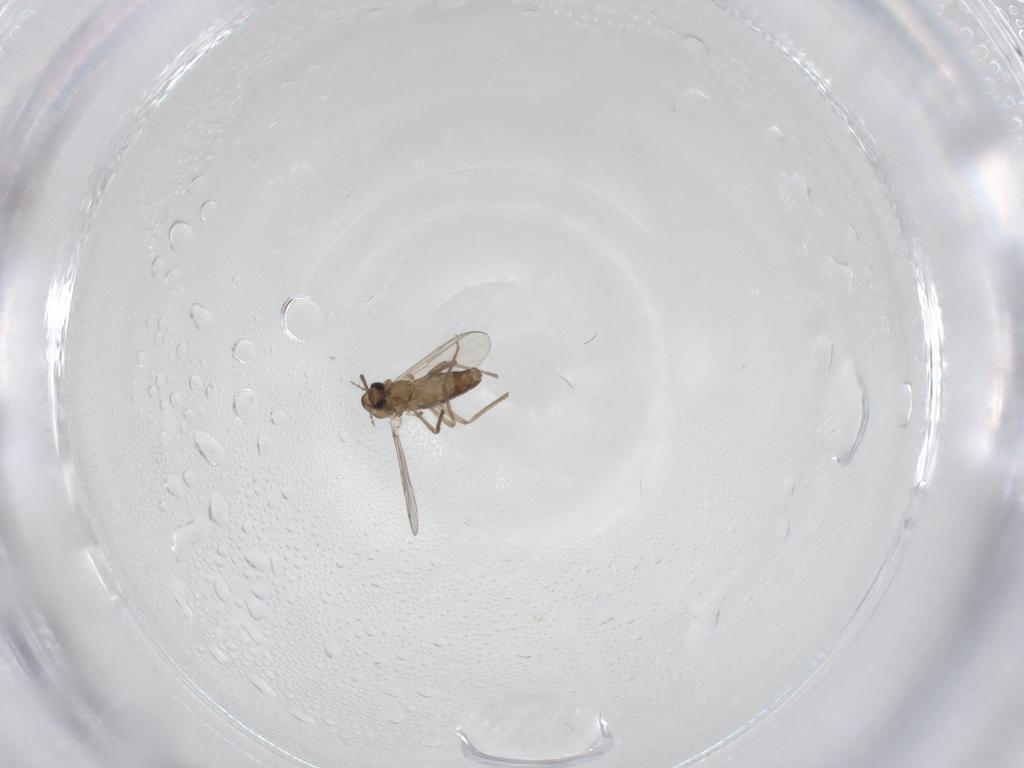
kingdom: Animalia
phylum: Arthropoda
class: Insecta
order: Diptera
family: Chironomidae
